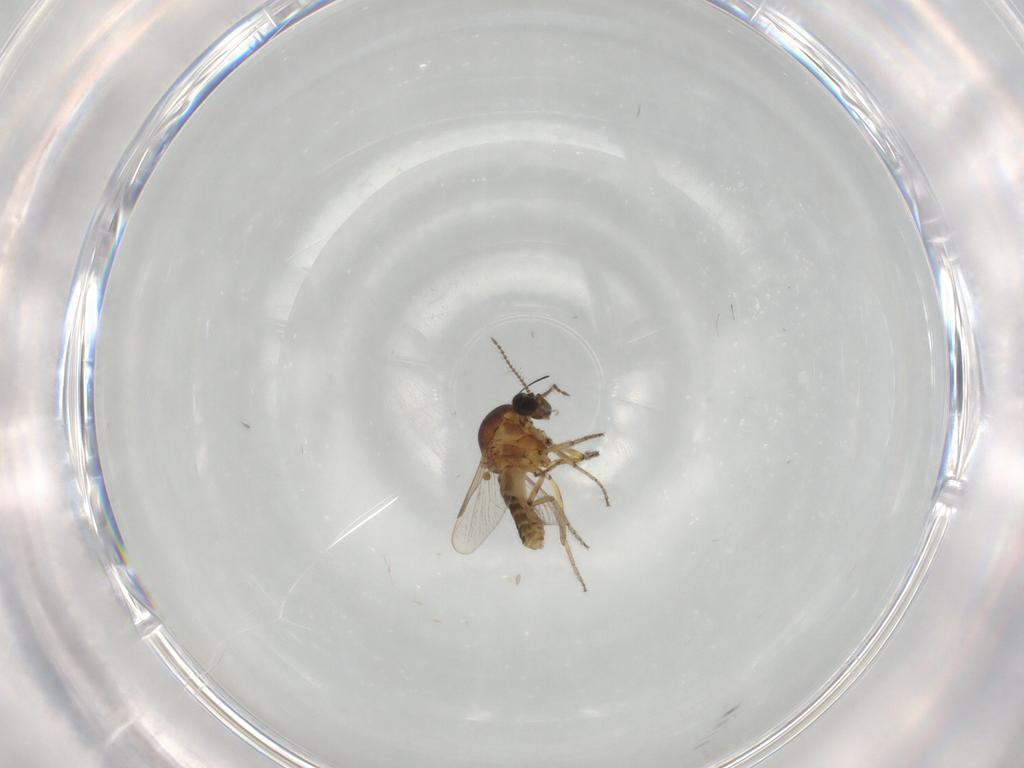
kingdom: Animalia
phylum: Arthropoda
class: Insecta
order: Diptera
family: Ceratopogonidae
